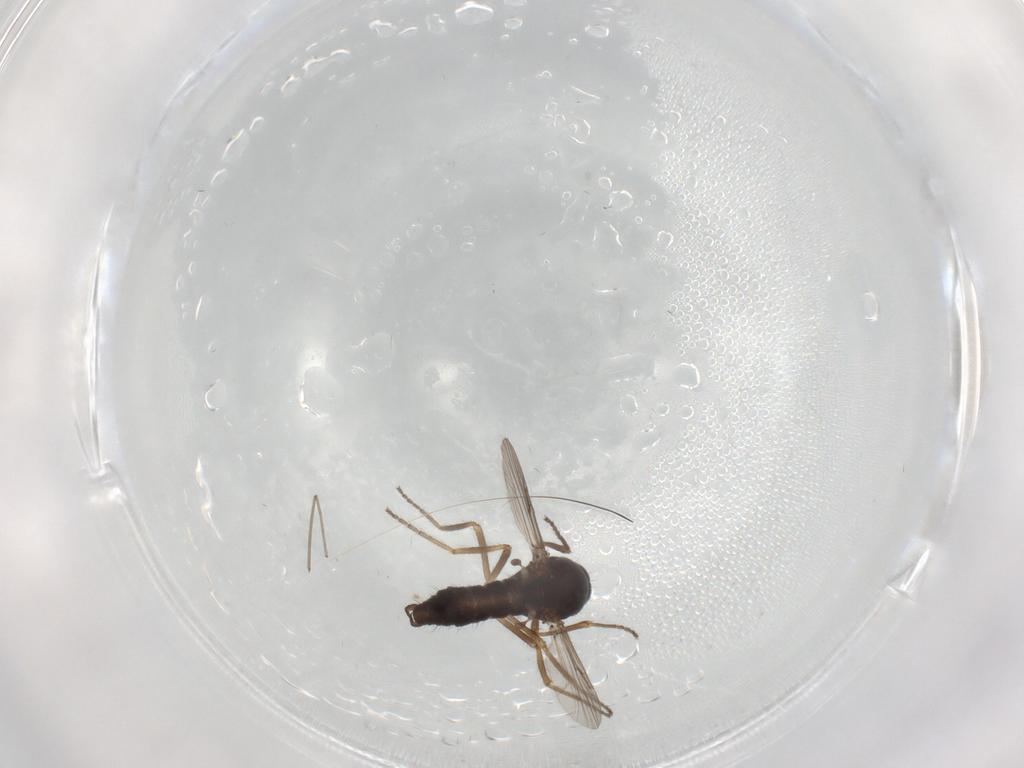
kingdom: Animalia
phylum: Arthropoda
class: Insecta
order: Diptera
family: Ceratopogonidae
